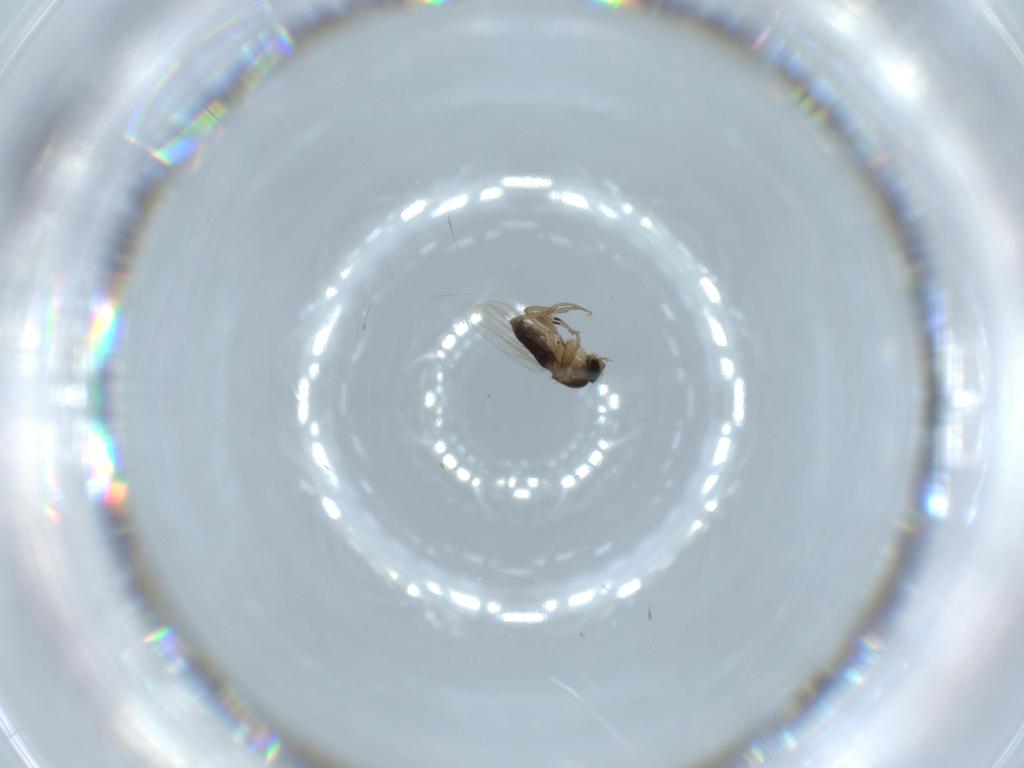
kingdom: Animalia
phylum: Arthropoda
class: Insecta
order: Diptera
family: Phoridae
